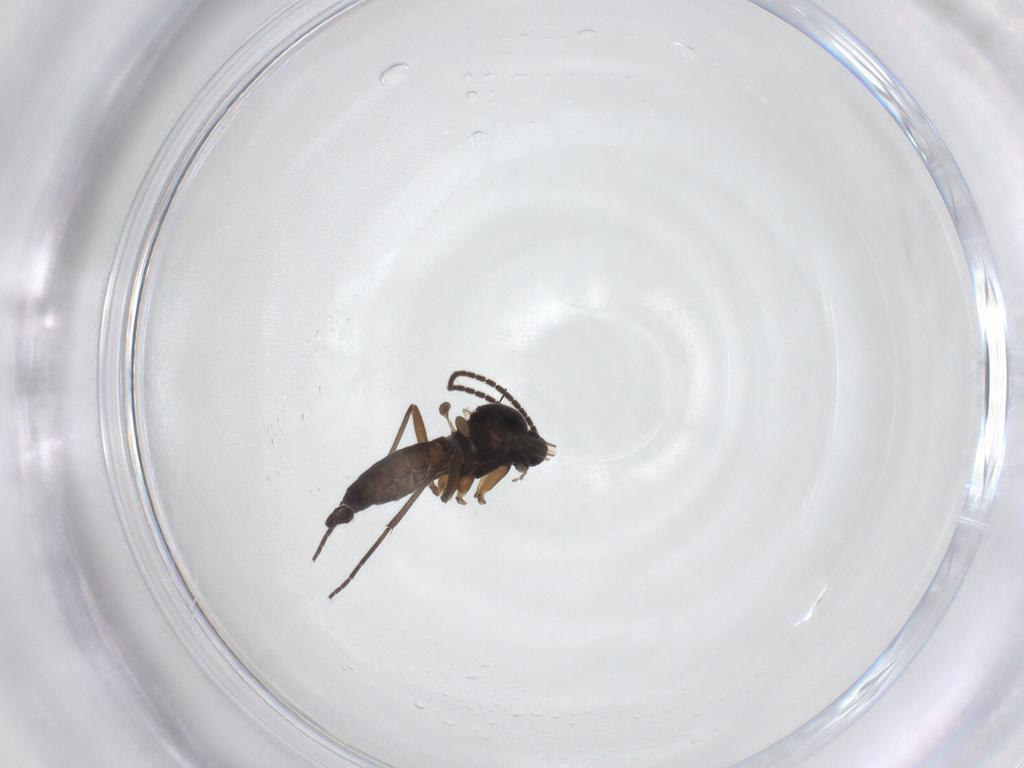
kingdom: Animalia
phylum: Arthropoda
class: Insecta
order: Diptera
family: Sciaridae
